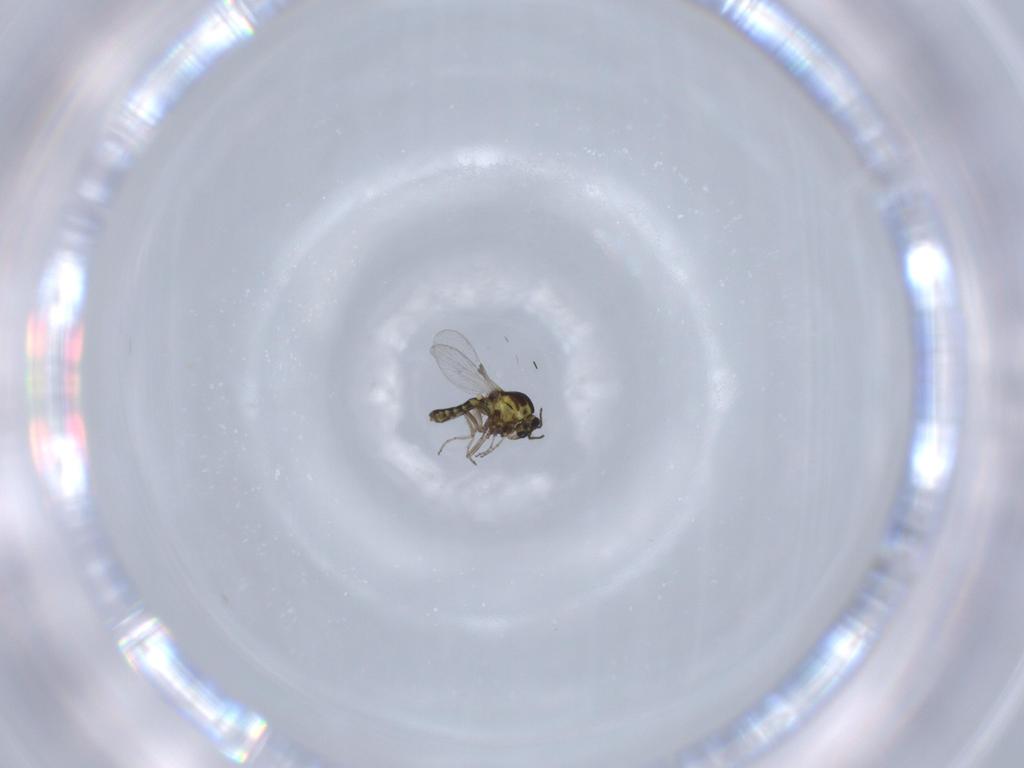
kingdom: Animalia
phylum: Arthropoda
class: Insecta
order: Diptera
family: Ceratopogonidae
